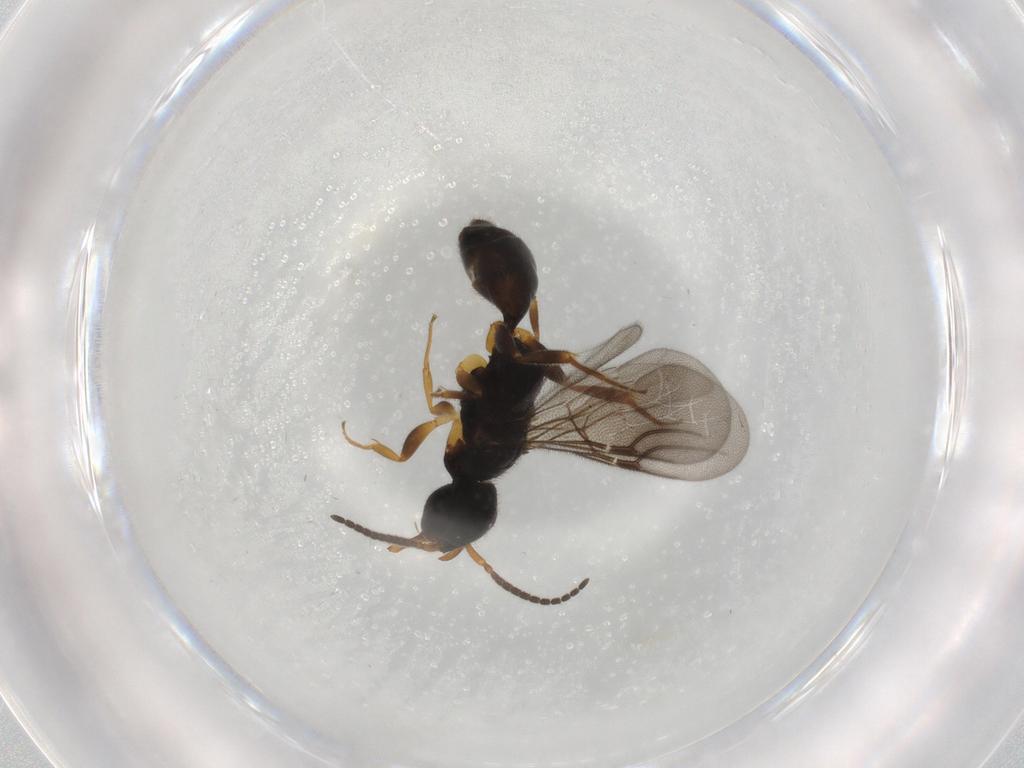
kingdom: Animalia
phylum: Arthropoda
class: Insecta
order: Hymenoptera
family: Bethylidae
